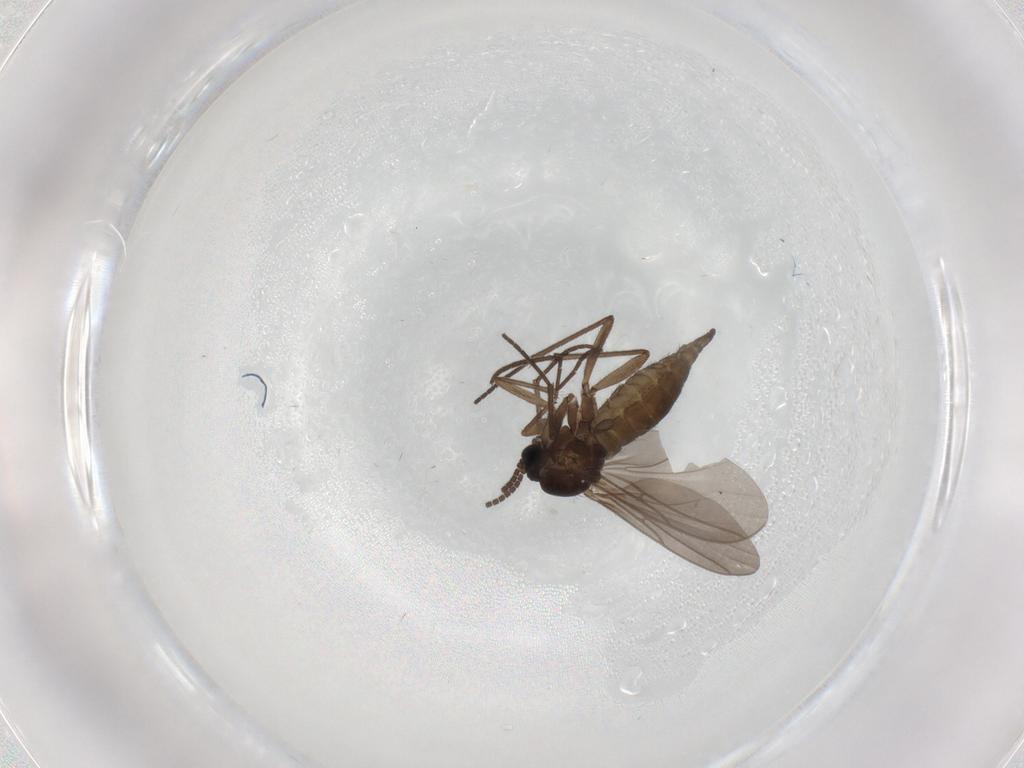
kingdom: Animalia
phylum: Arthropoda
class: Insecta
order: Diptera
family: Sciaridae
